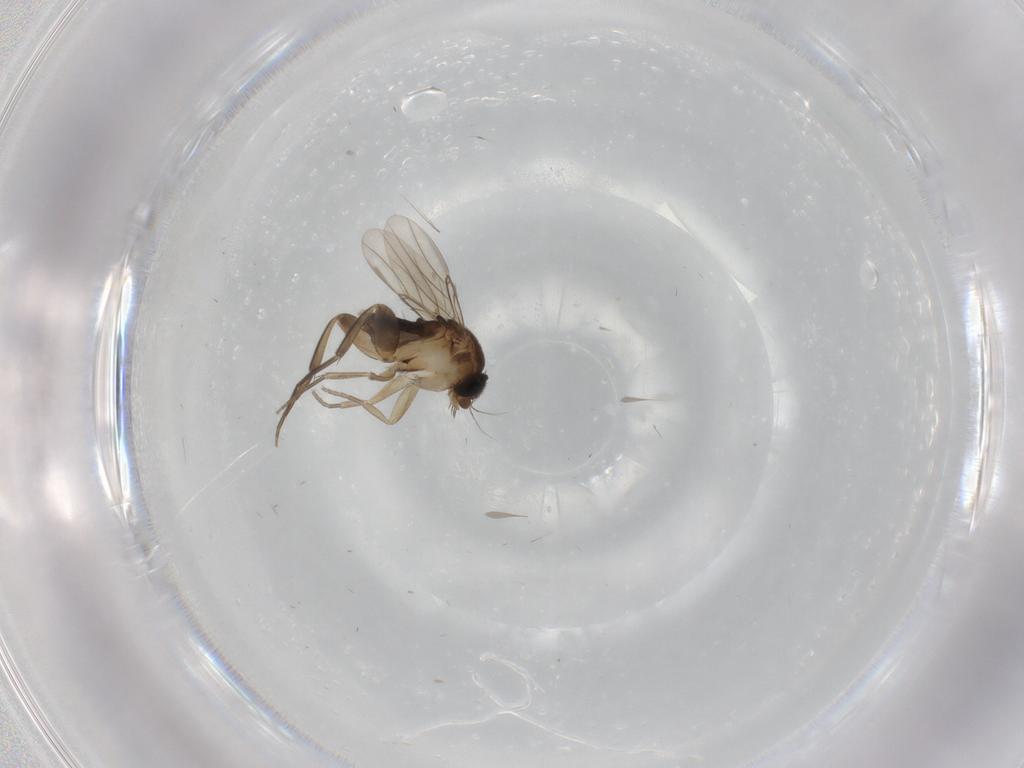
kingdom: Animalia
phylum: Arthropoda
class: Insecta
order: Diptera
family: Phoridae
